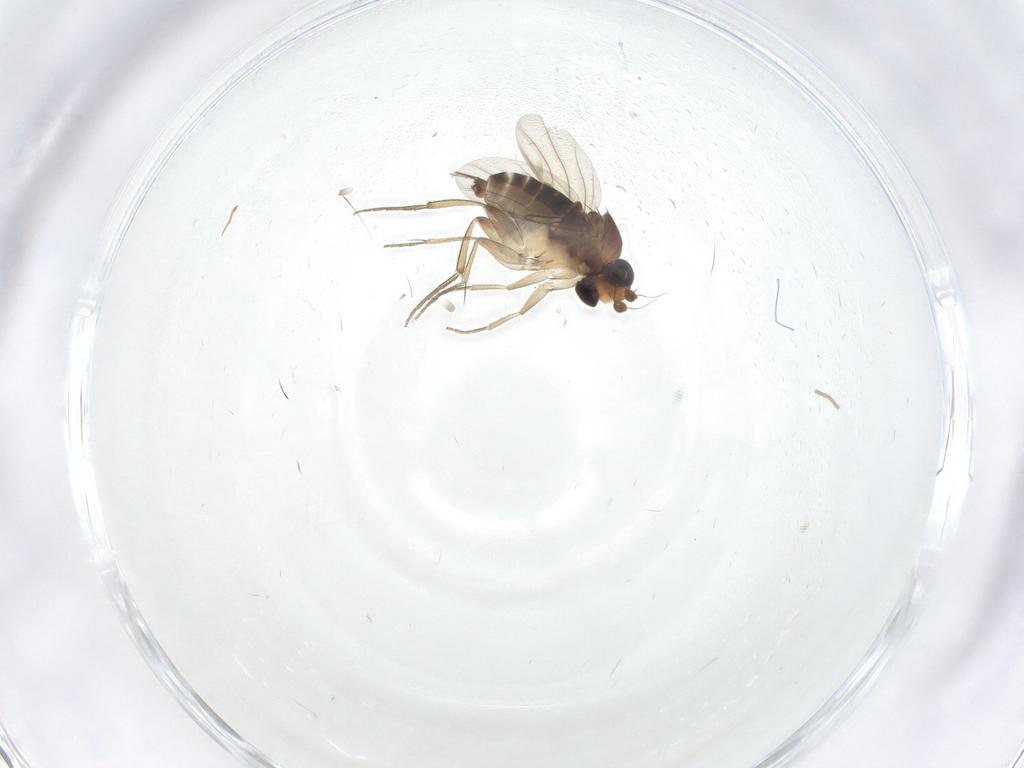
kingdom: Animalia
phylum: Arthropoda
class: Insecta
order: Diptera
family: Phoridae
